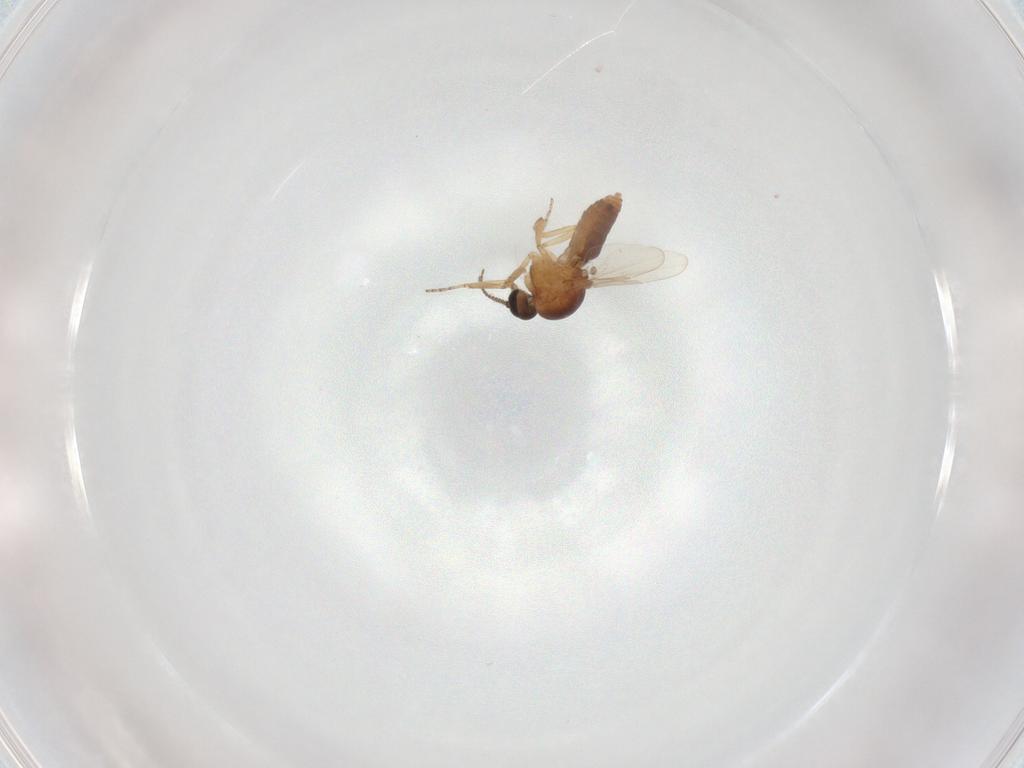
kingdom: Animalia
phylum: Arthropoda
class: Insecta
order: Diptera
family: Ceratopogonidae
